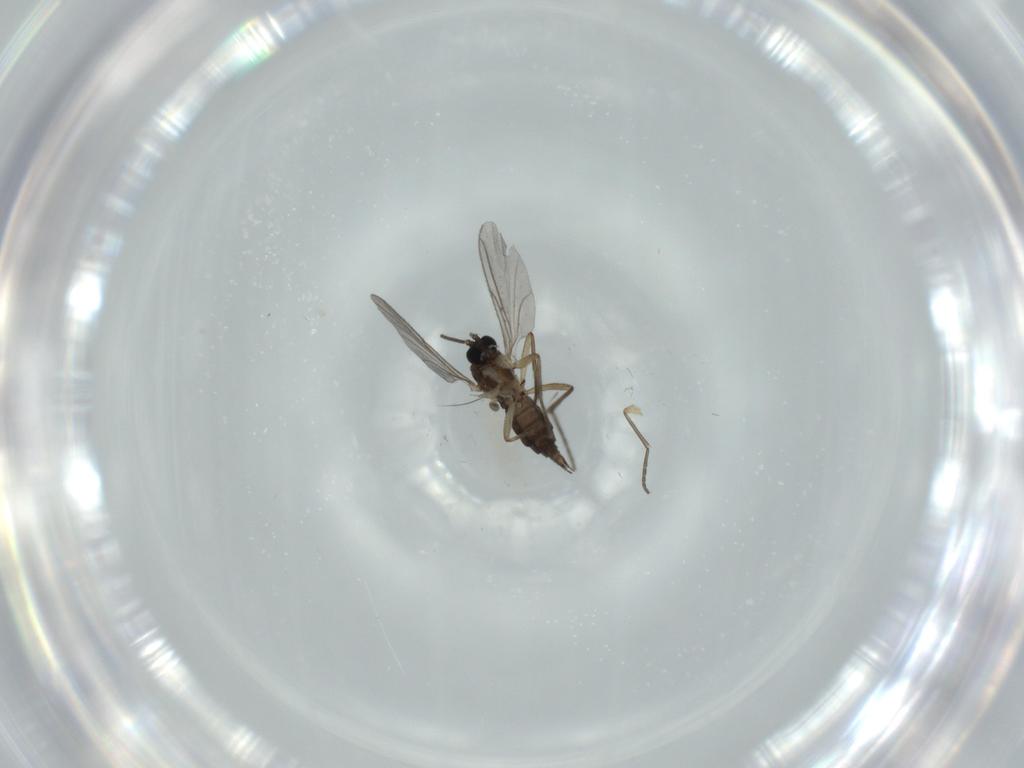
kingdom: Animalia
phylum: Arthropoda
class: Insecta
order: Diptera
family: Sciaridae
